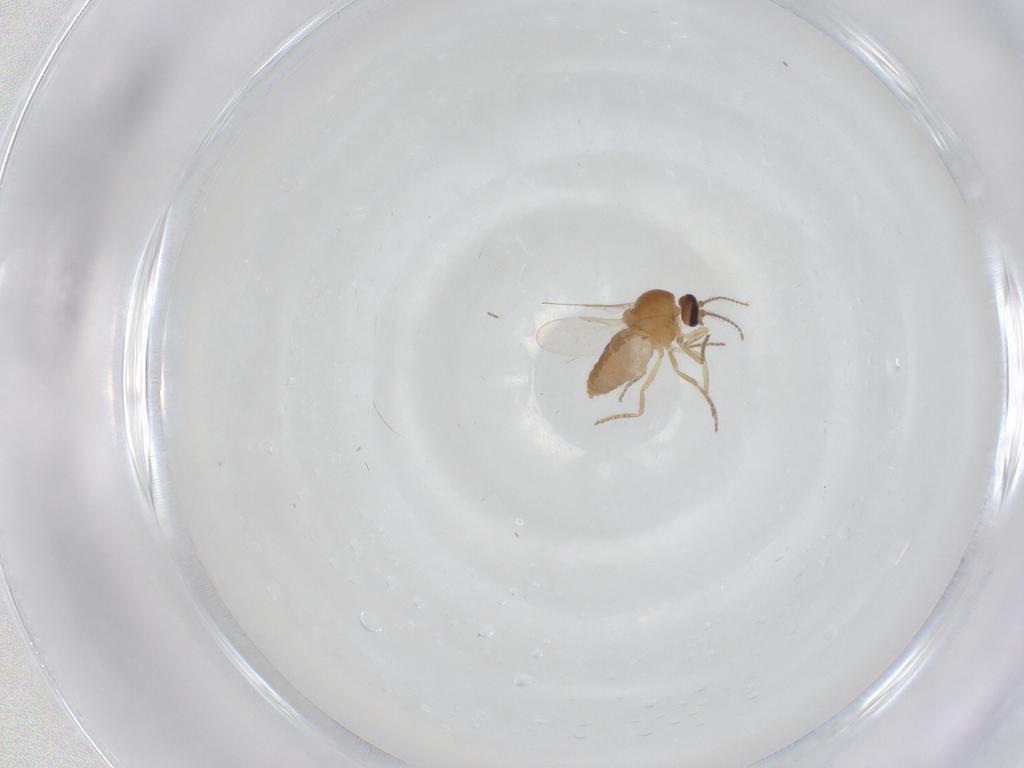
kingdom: Animalia
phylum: Arthropoda
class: Insecta
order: Diptera
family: Ceratopogonidae
